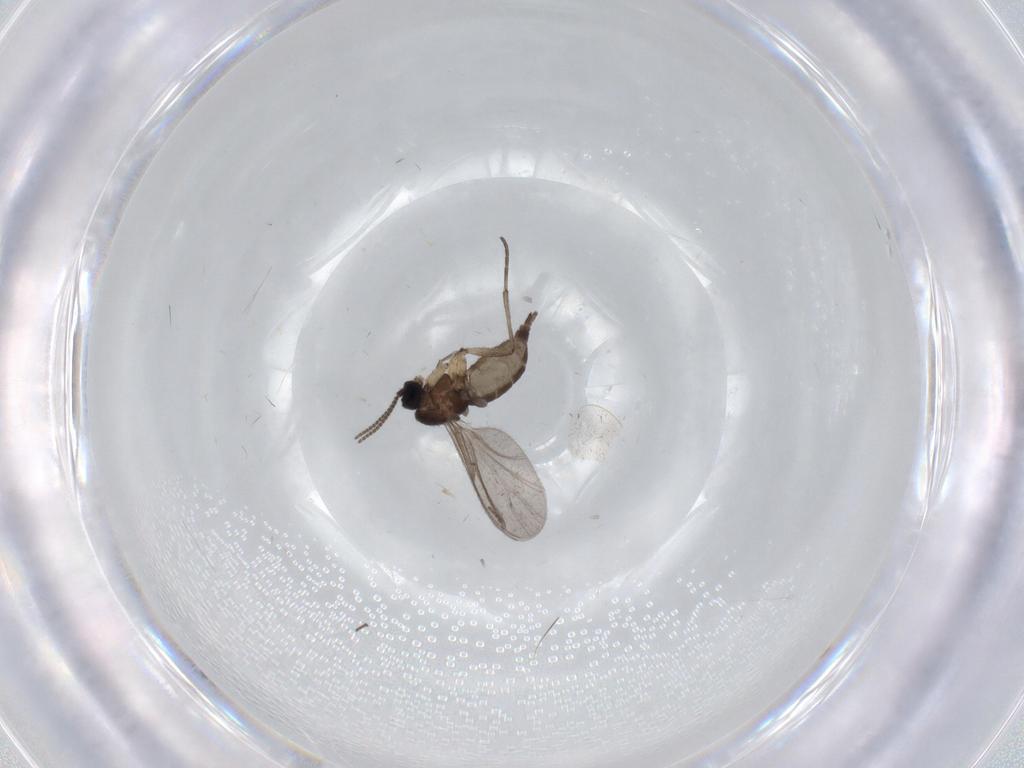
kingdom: Animalia
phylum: Arthropoda
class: Insecta
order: Diptera
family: Sciaridae
